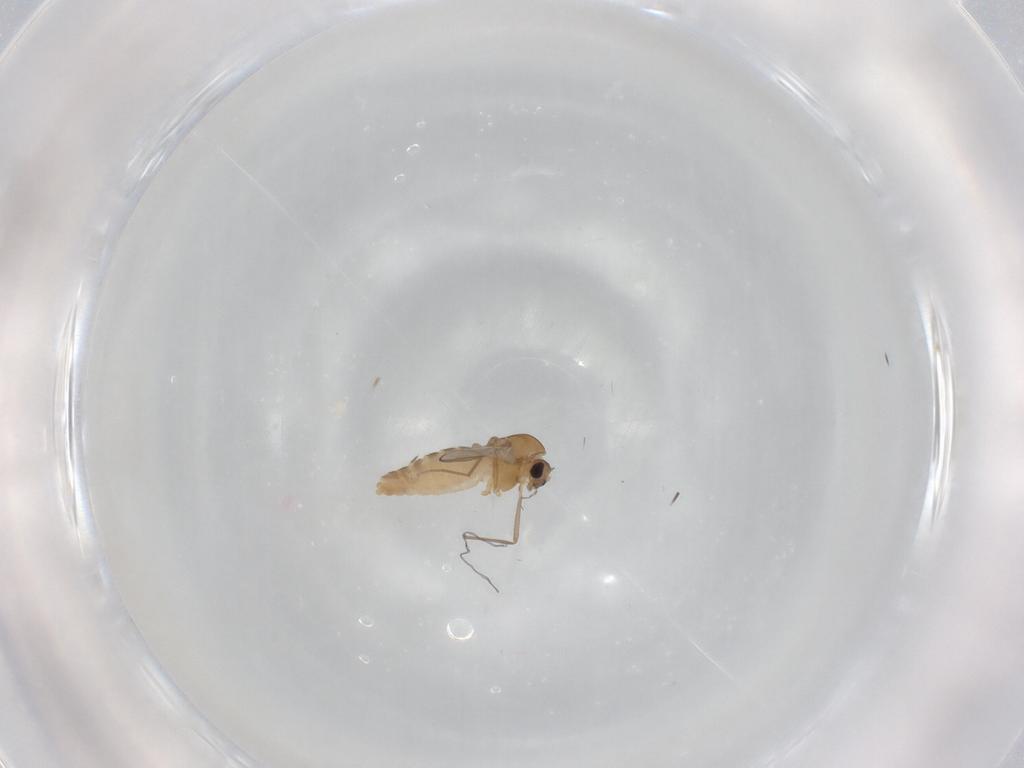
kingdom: Animalia
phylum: Arthropoda
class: Insecta
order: Diptera
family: Chironomidae
